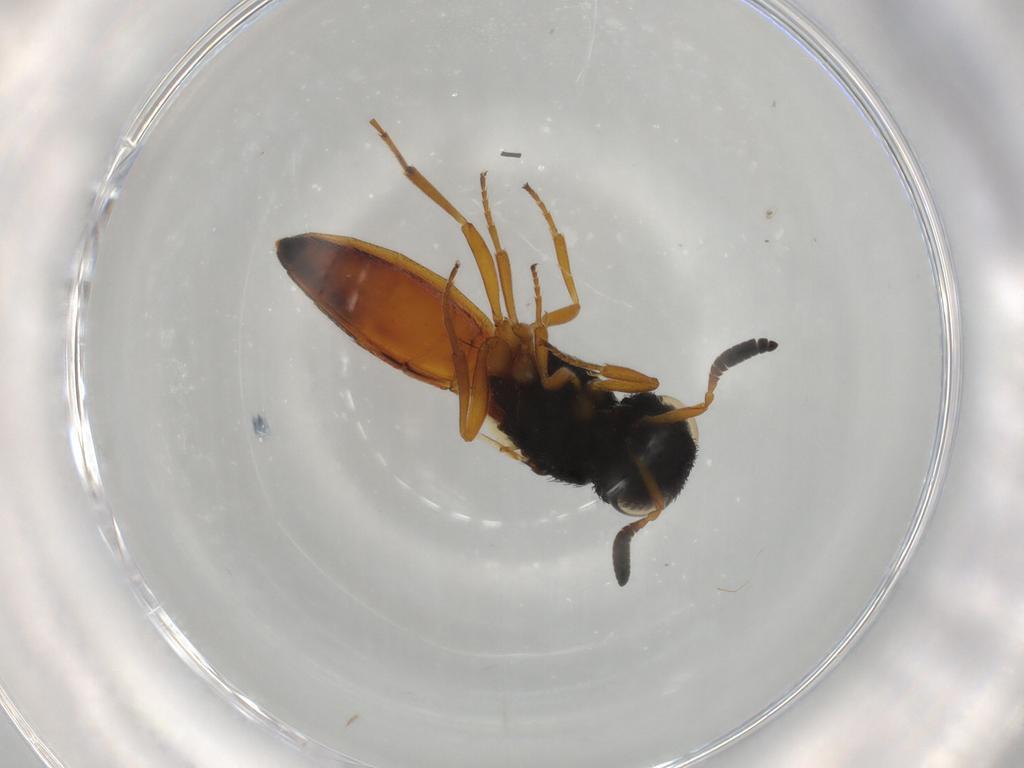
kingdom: Animalia
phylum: Arthropoda
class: Insecta
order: Hymenoptera
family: Scelionidae
